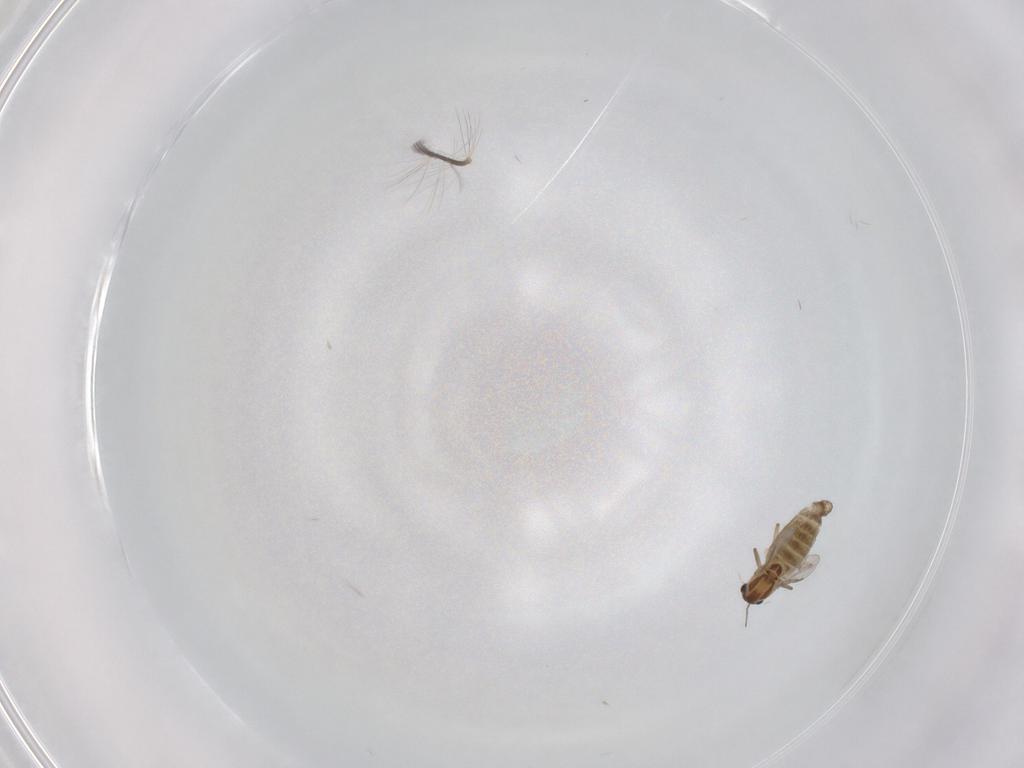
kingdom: Animalia
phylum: Arthropoda
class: Insecta
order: Diptera
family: Chironomidae
